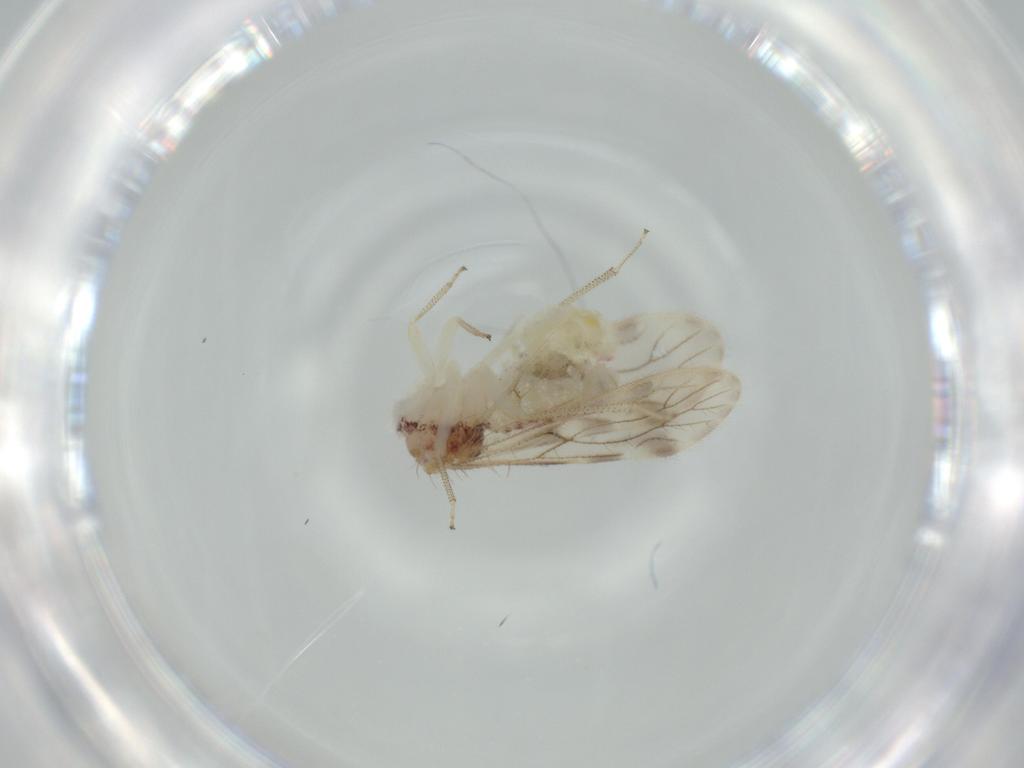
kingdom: Animalia
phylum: Arthropoda
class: Insecta
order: Psocodea
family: Pseudocaeciliidae
